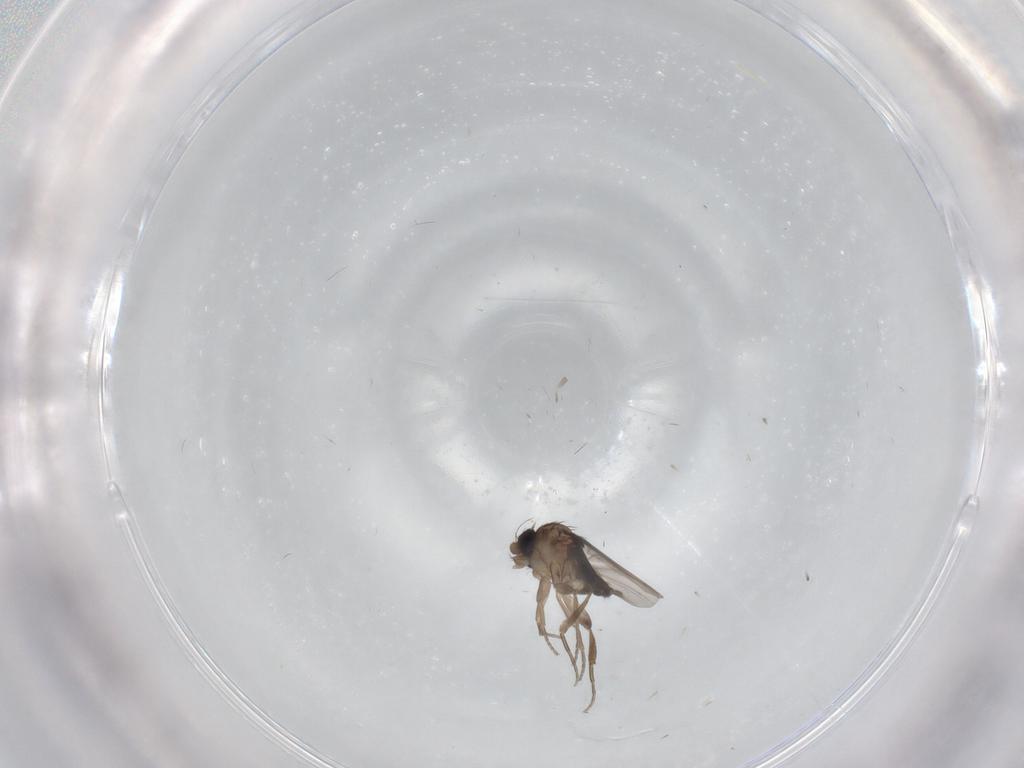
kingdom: Animalia
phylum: Arthropoda
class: Insecta
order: Diptera
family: Phoridae
